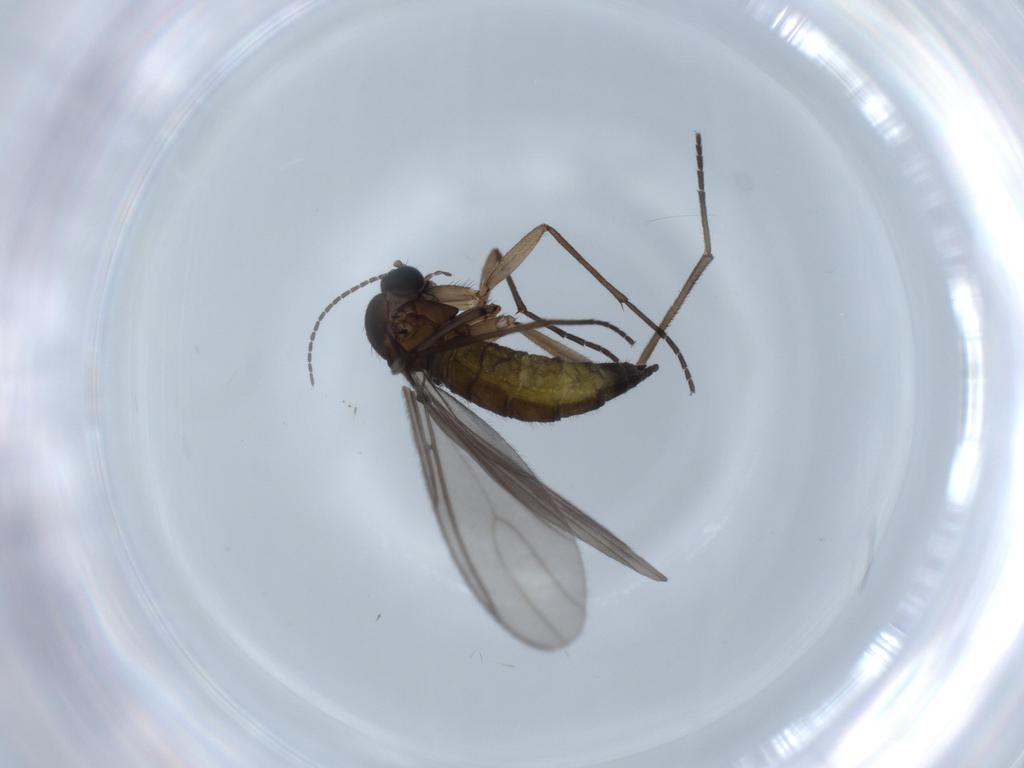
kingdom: Animalia
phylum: Arthropoda
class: Insecta
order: Diptera
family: Sciaridae
